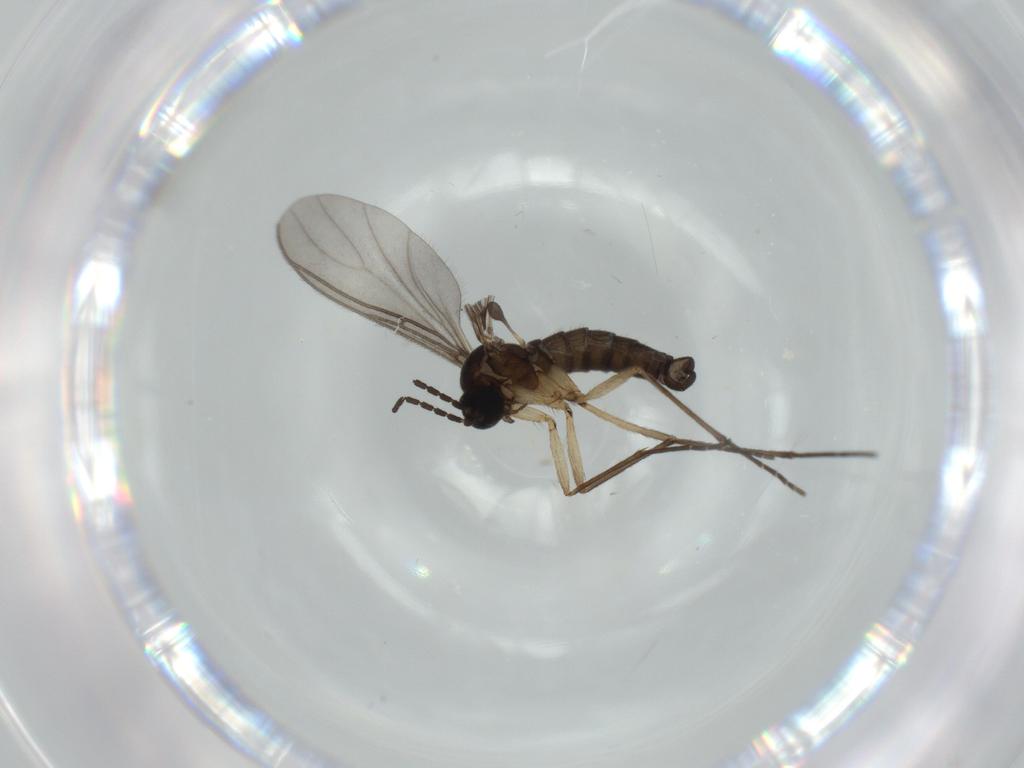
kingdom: Animalia
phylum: Arthropoda
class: Insecta
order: Diptera
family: Sciaridae
